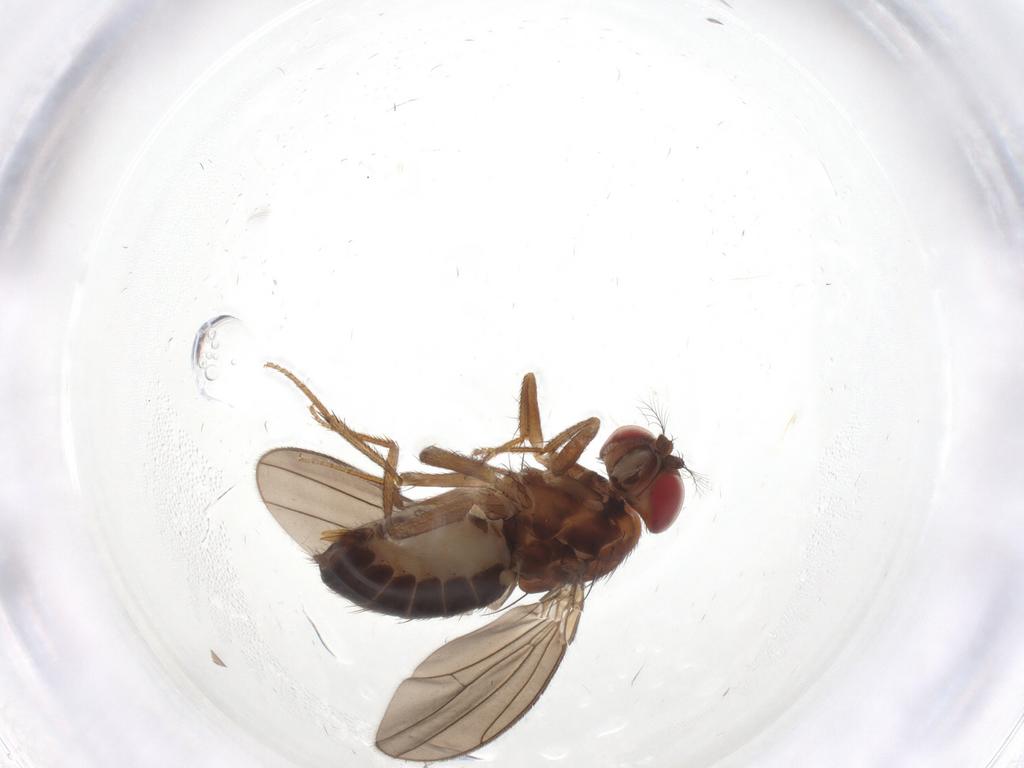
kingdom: Animalia
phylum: Arthropoda
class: Insecta
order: Diptera
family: Drosophilidae
